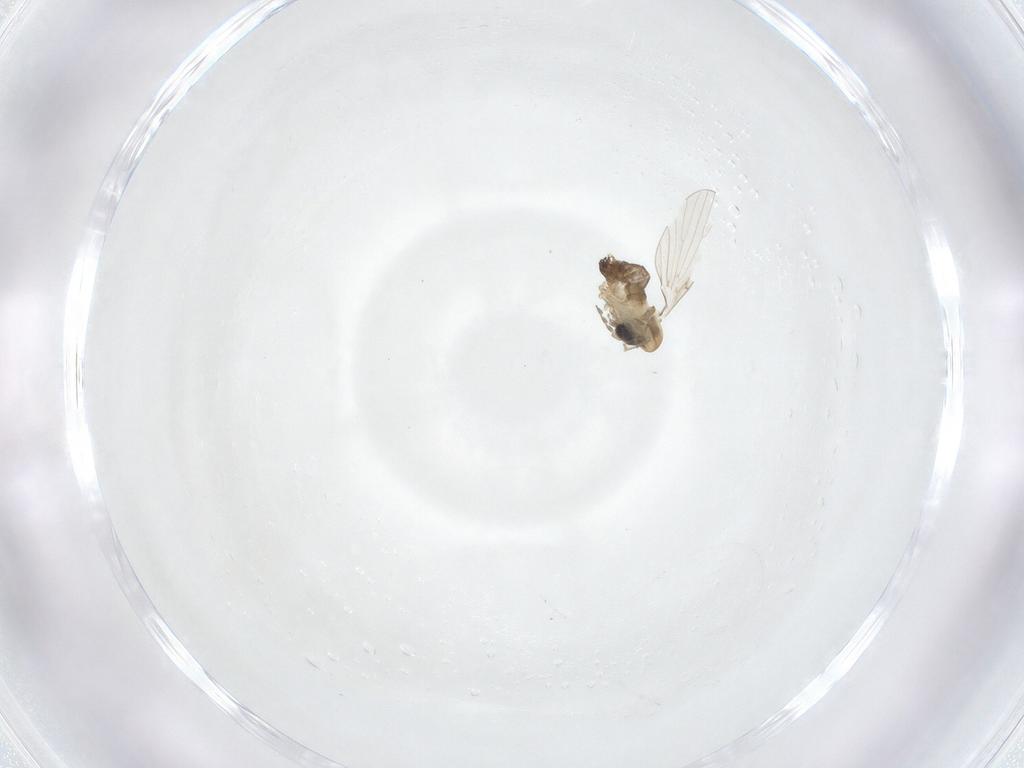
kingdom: Animalia
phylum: Arthropoda
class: Insecta
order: Diptera
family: Psychodidae
